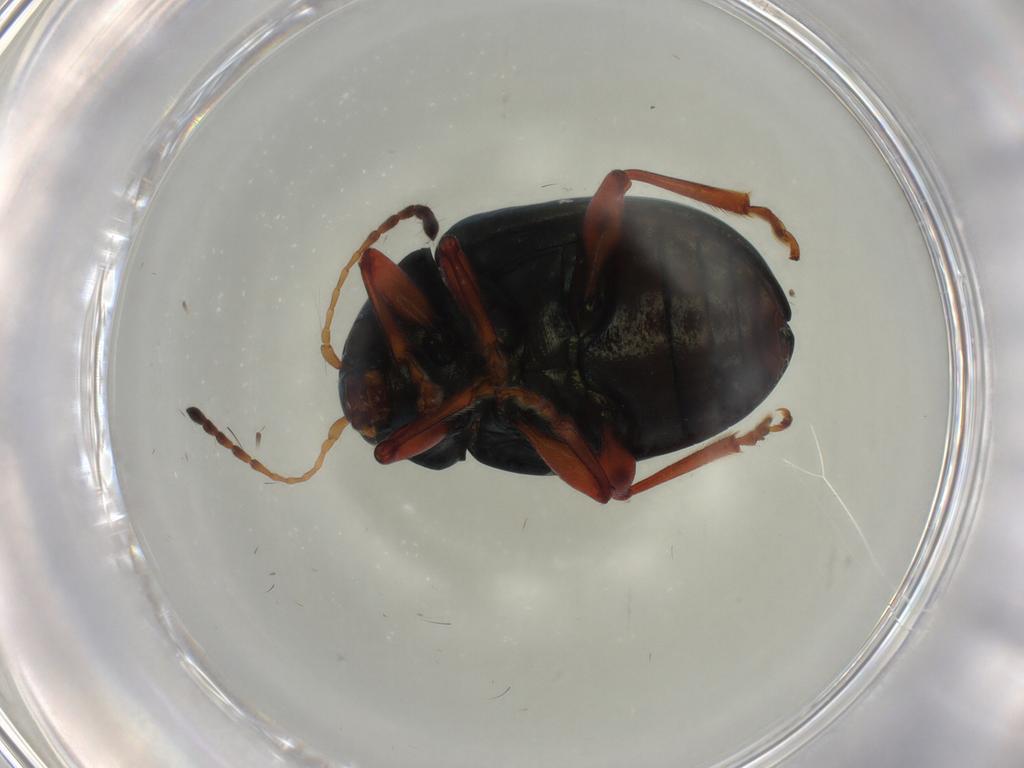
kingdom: Animalia
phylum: Arthropoda
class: Insecta
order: Coleoptera
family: Chrysomelidae
